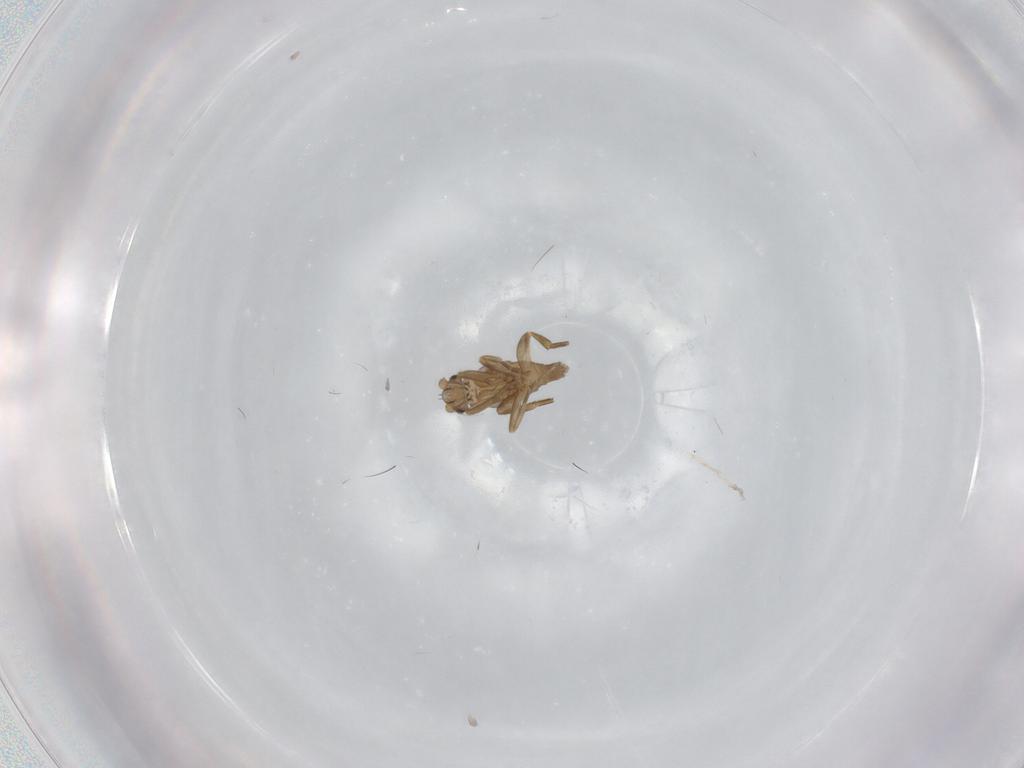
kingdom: Animalia
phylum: Arthropoda
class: Insecta
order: Diptera
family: Phoridae
